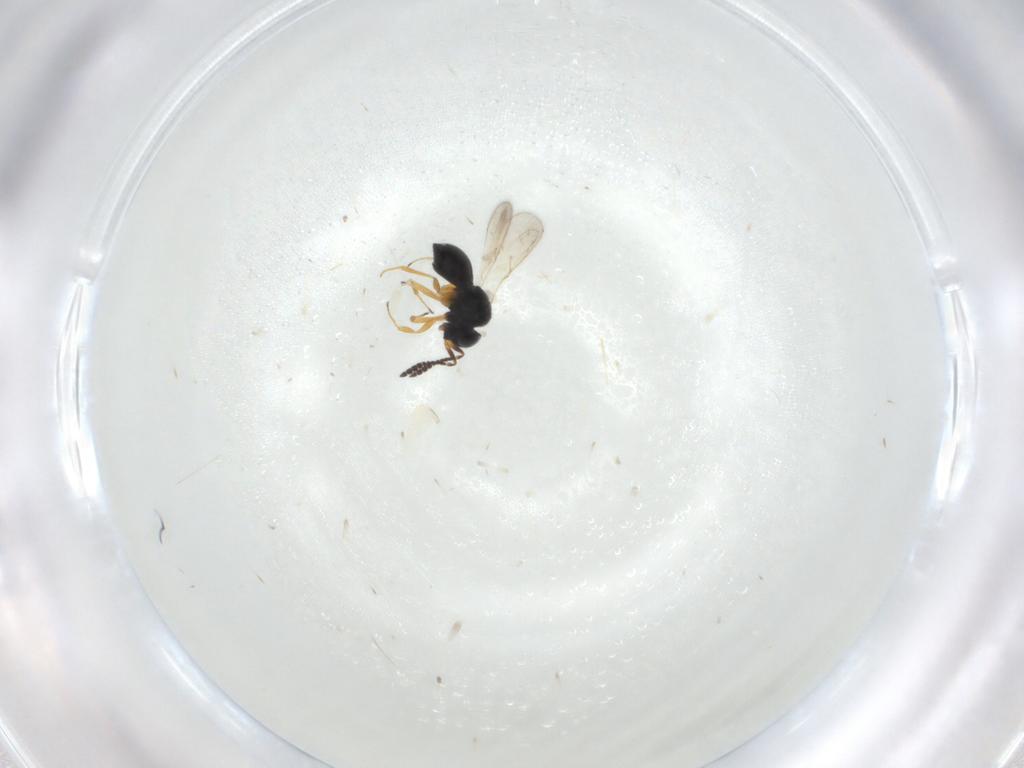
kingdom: Animalia
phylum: Arthropoda
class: Insecta
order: Hymenoptera
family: Scelionidae
